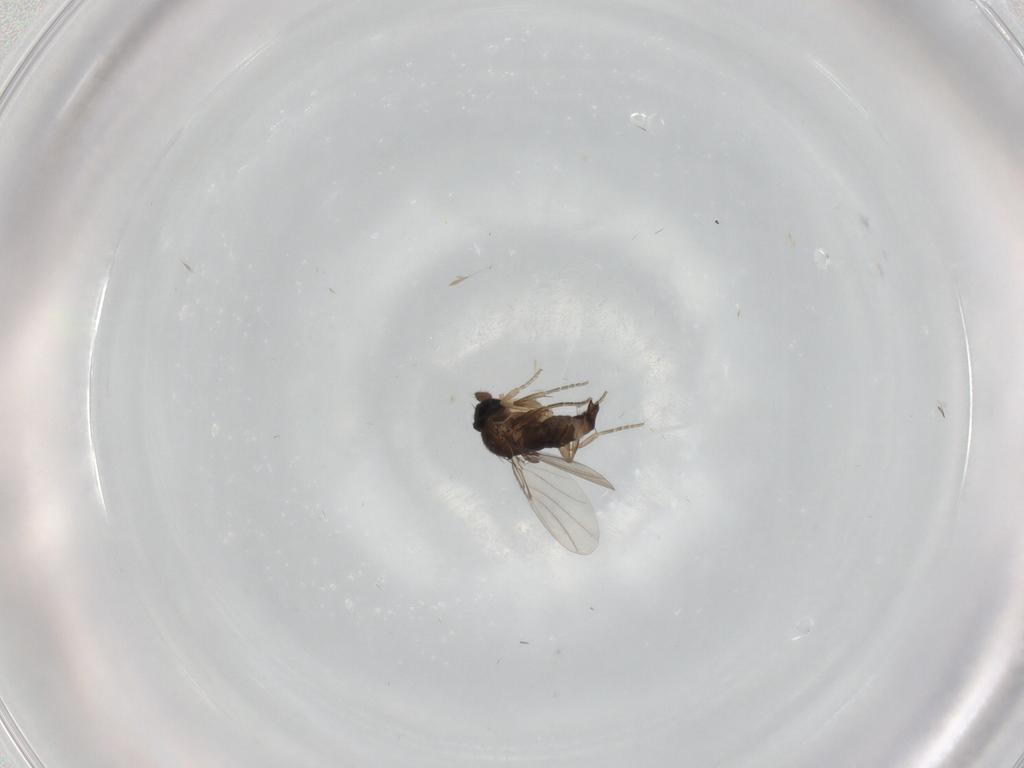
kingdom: Animalia
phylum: Arthropoda
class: Insecta
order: Diptera
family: Phoridae
